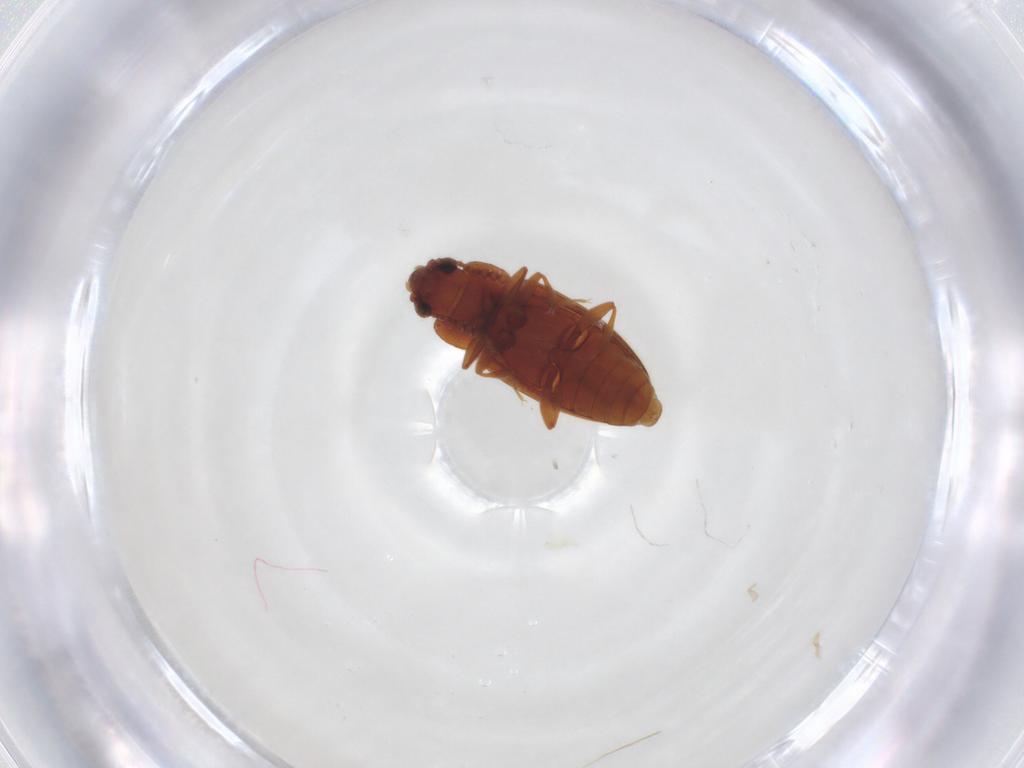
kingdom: Animalia
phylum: Arthropoda
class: Insecta
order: Coleoptera
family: Erotylidae
